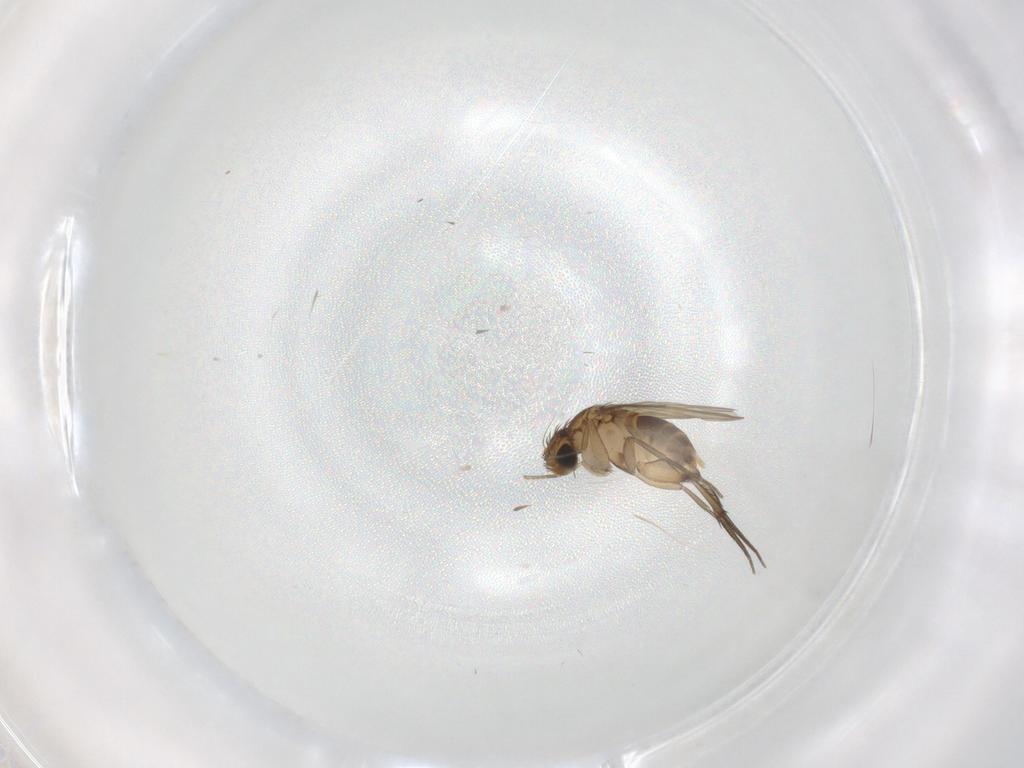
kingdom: Animalia
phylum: Arthropoda
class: Insecta
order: Diptera
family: Phoridae
